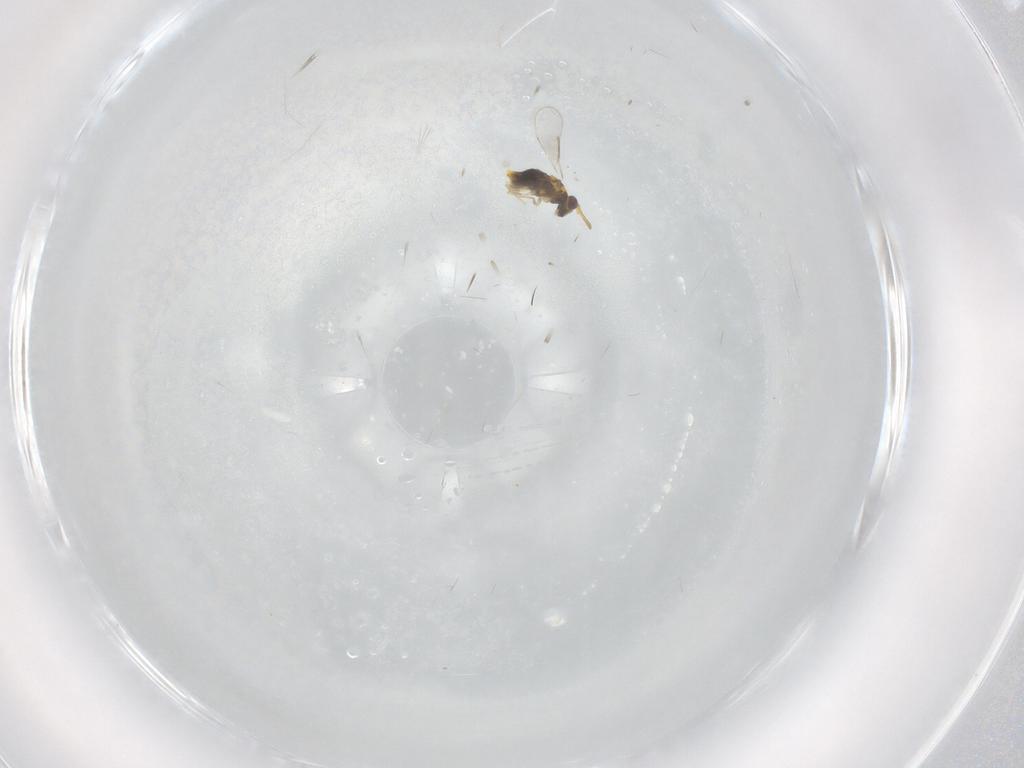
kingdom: Animalia
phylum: Arthropoda
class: Insecta
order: Hymenoptera
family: Aphelinidae
